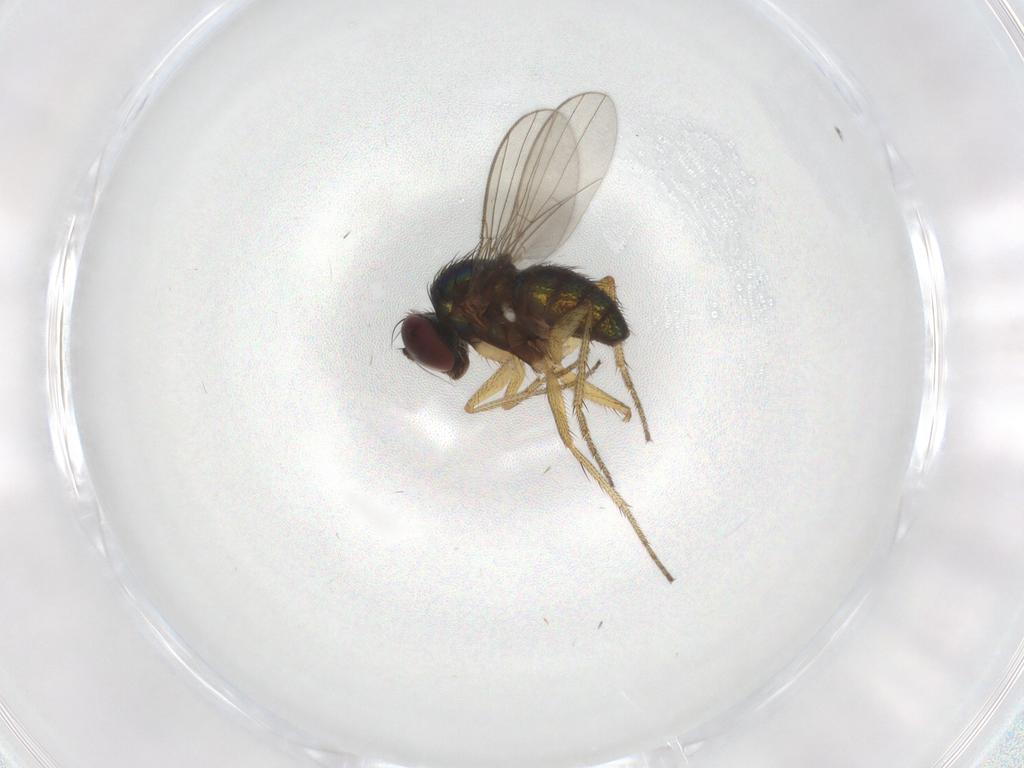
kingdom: Animalia
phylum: Arthropoda
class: Insecta
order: Diptera
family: Dolichopodidae
